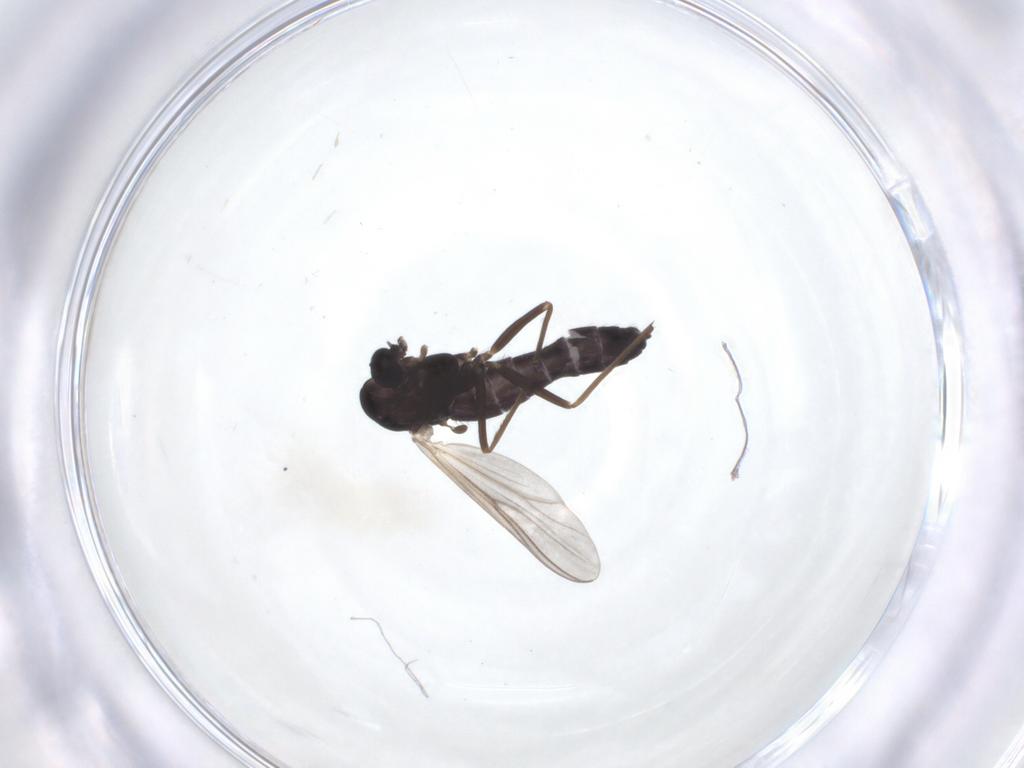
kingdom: Animalia
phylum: Arthropoda
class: Insecta
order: Diptera
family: Chironomidae
